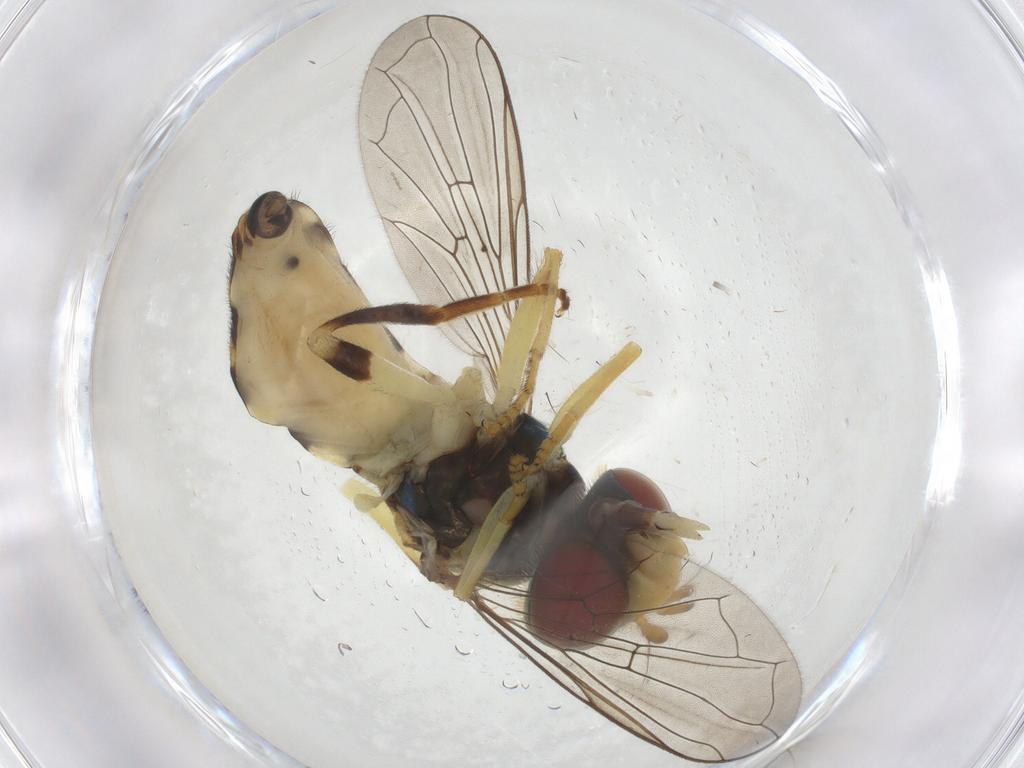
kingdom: Animalia
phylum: Arthropoda
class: Insecta
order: Diptera
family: Syrphidae
